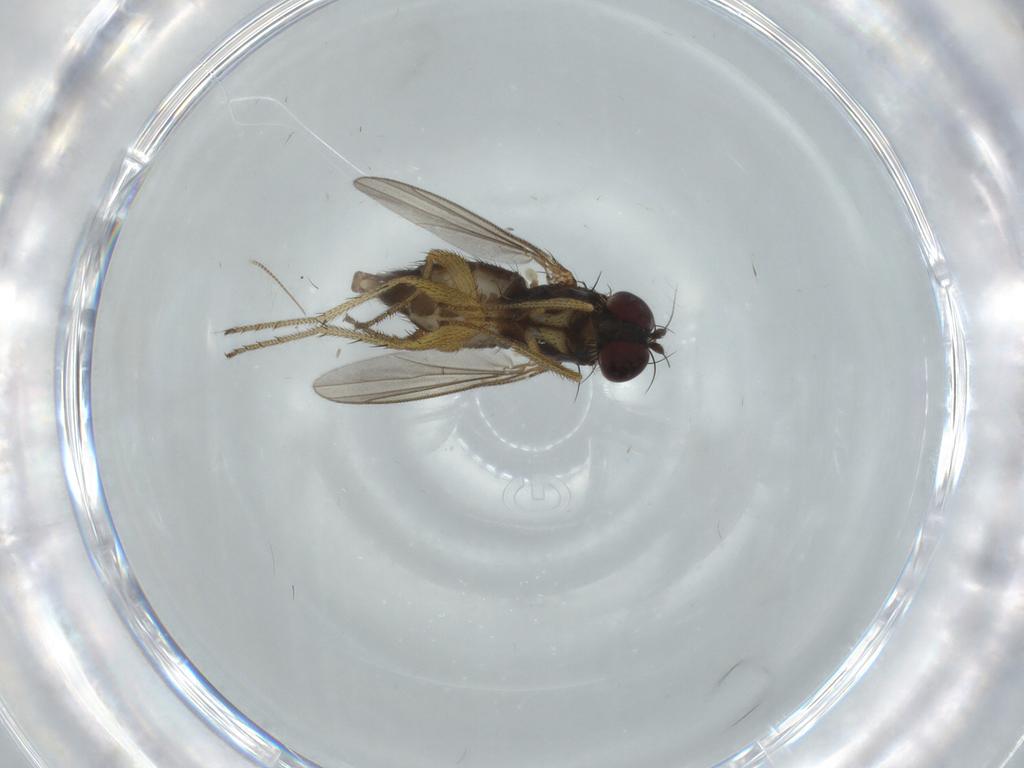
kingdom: Animalia
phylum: Arthropoda
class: Insecta
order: Diptera
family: Dolichopodidae
